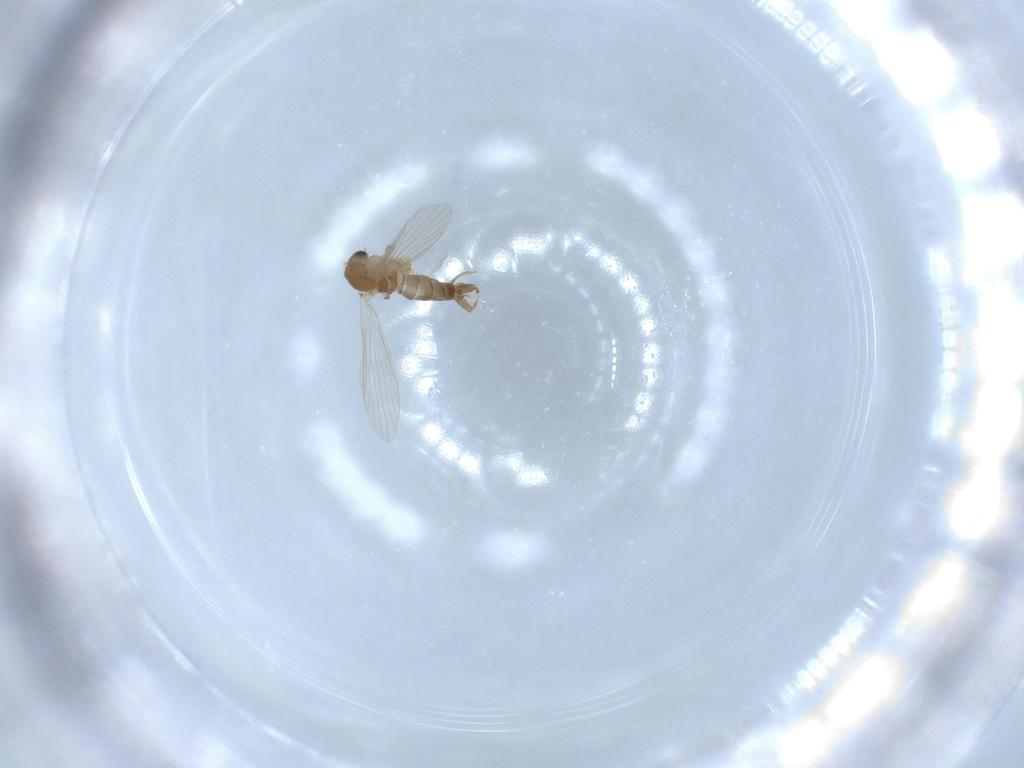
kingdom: Animalia
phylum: Arthropoda
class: Insecta
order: Diptera
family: Psychodidae
